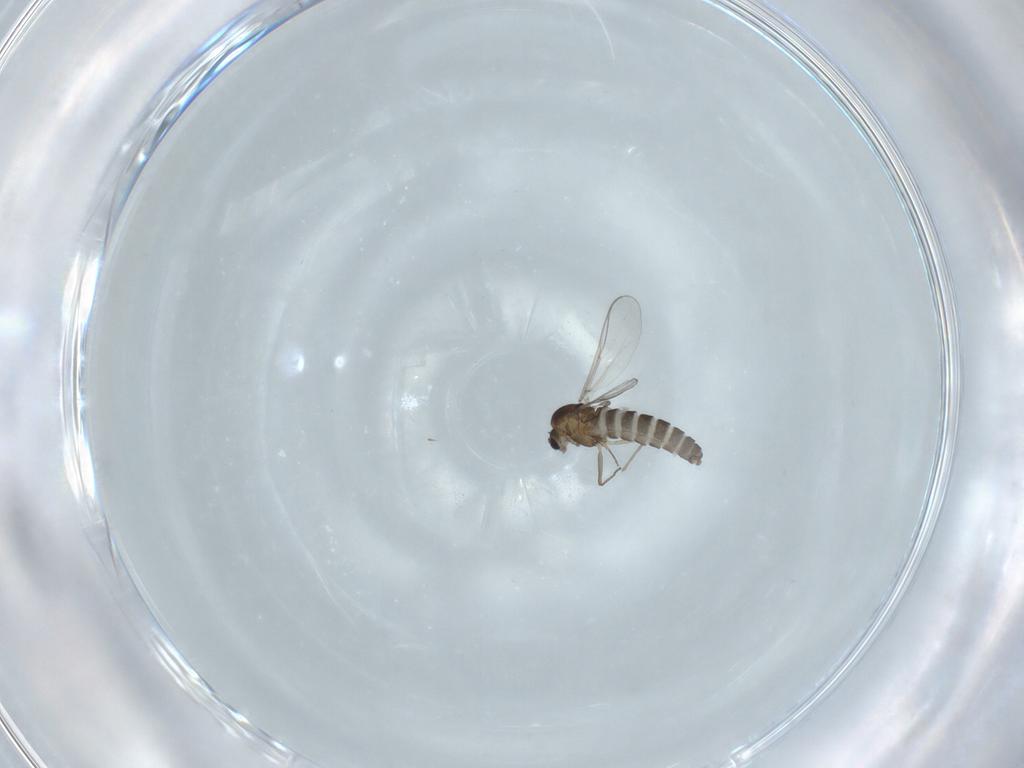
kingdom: Animalia
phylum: Arthropoda
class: Insecta
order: Diptera
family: Chironomidae
